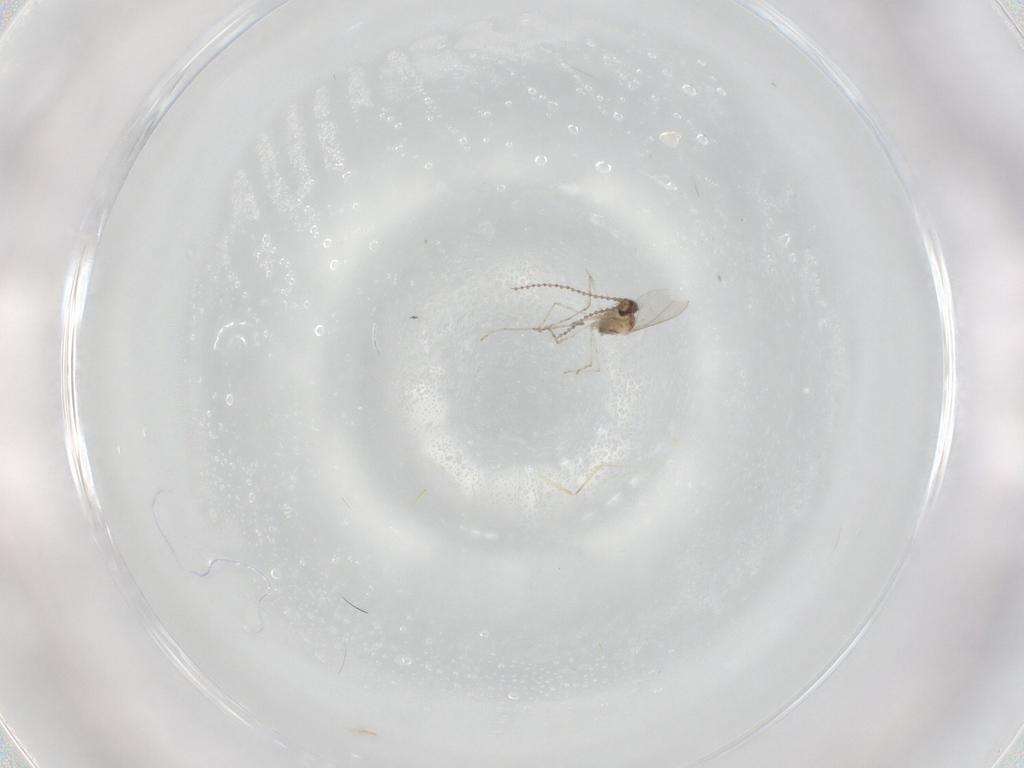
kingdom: Animalia
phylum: Arthropoda
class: Insecta
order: Diptera
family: Cecidomyiidae
